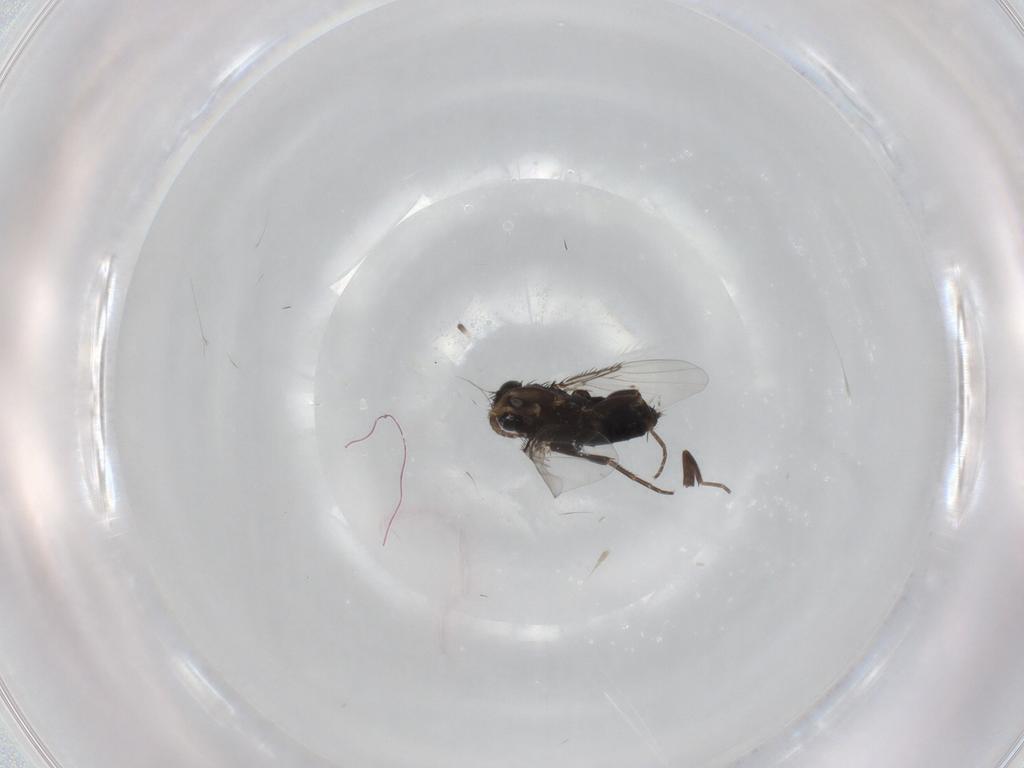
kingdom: Animalia
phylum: Arthropoda
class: Insecta
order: Diptera
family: Phoridae
